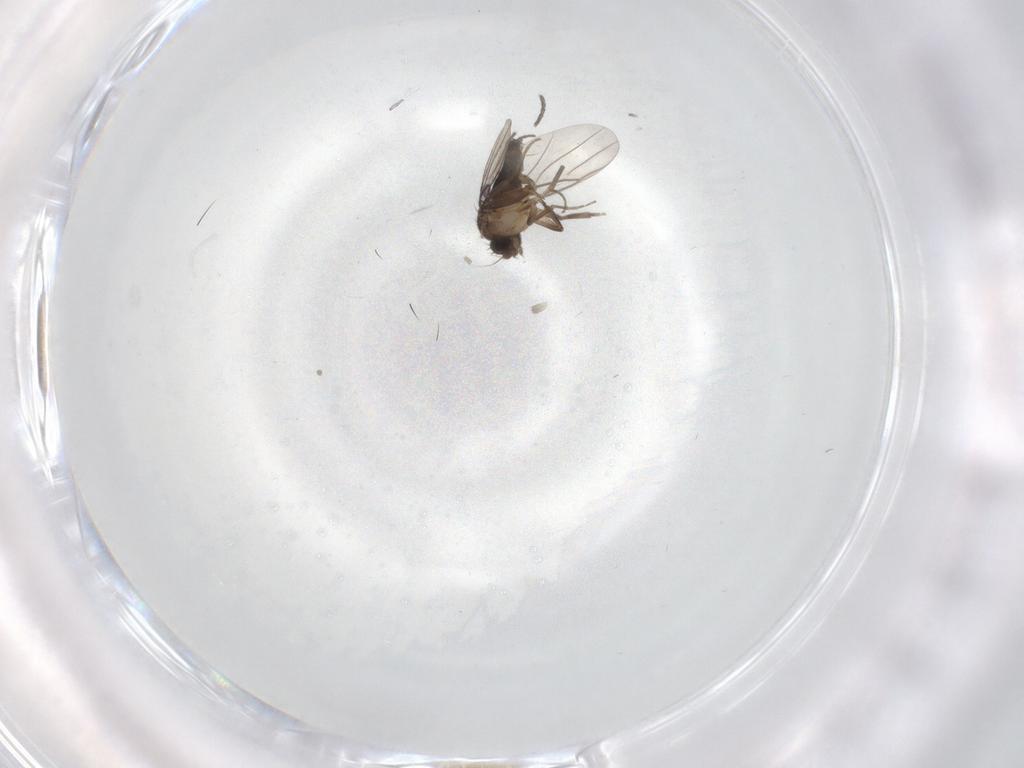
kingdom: Animalia
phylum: Arthropoda
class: Insecta
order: Diptera
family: Phoridae
